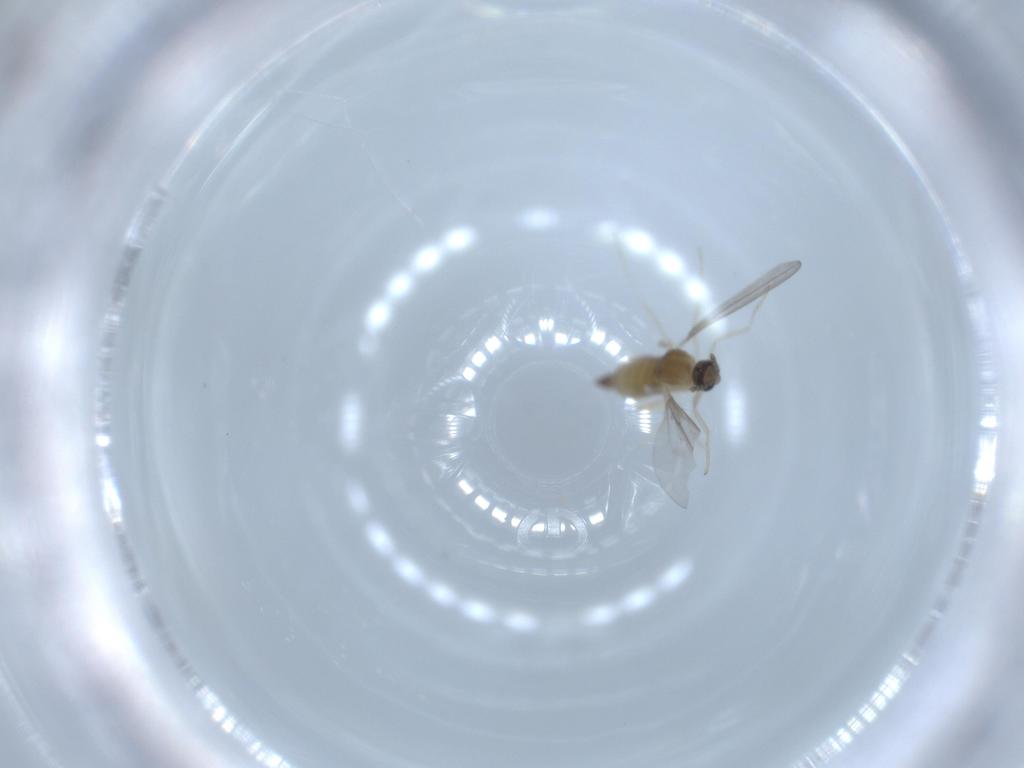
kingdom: Animalia
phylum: Arthropoda
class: Insecta
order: Diptera
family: Cecidomyiidae
